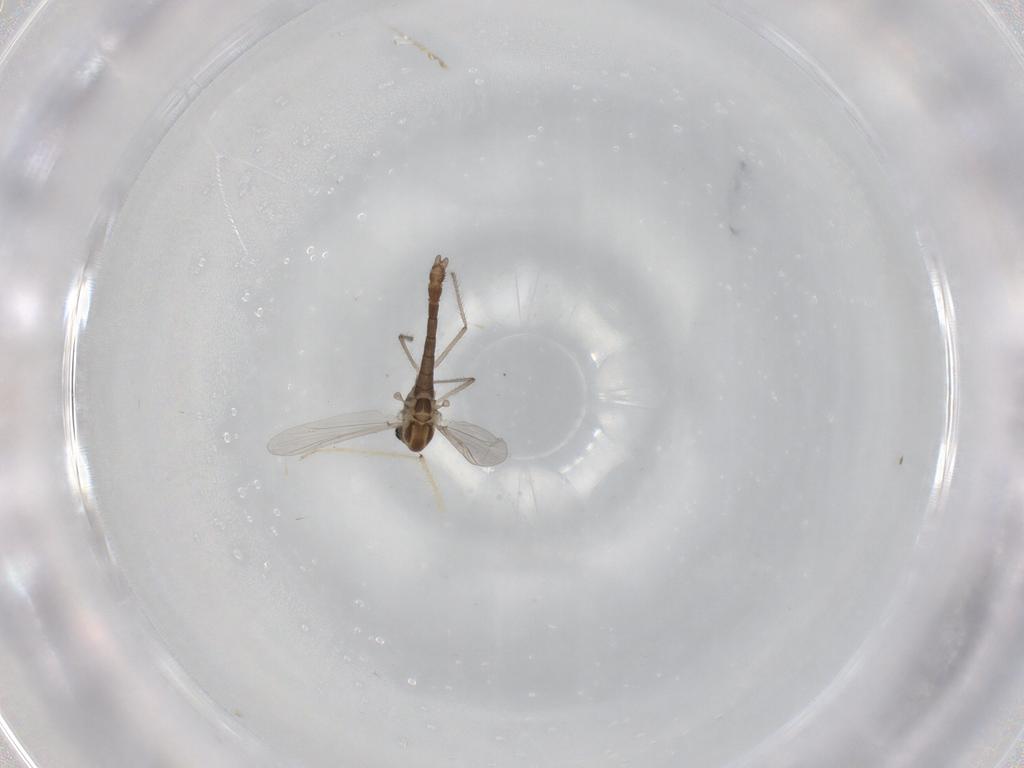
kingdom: Animalia
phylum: Arthropoda
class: Insecta
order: Diptera
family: Chironomidae
